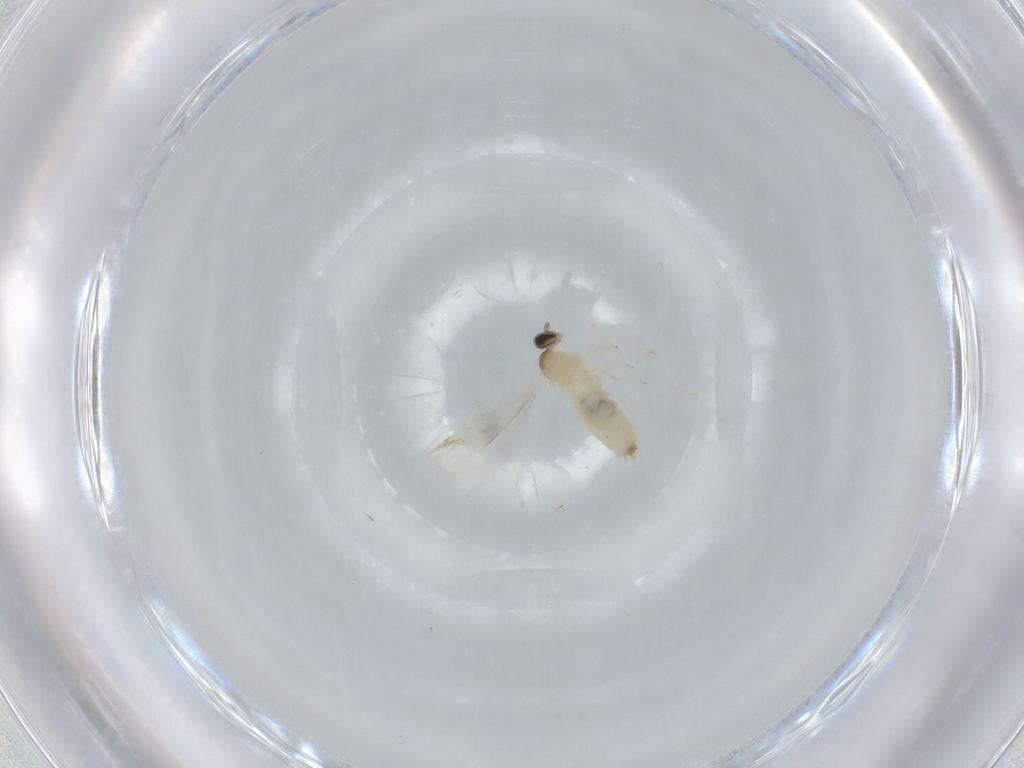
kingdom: Animalia
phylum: Arthropoda
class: Insecta
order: Diptera
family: Cecidomyiidae
